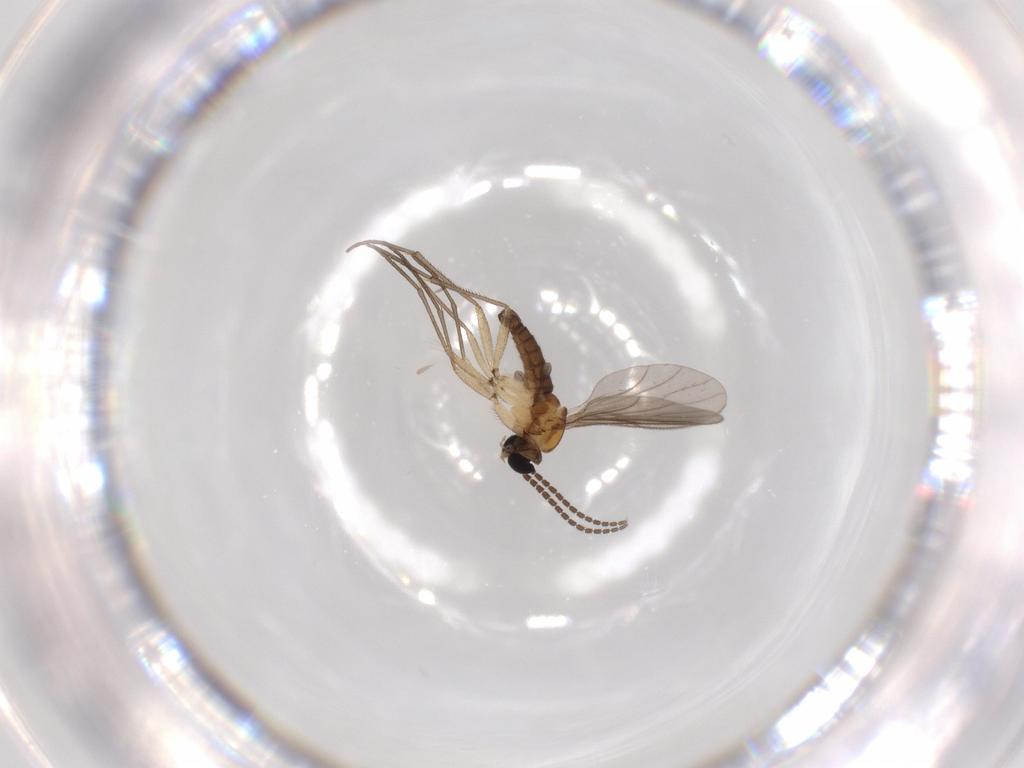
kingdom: Animalia
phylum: Arthropoda
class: Insecta
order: Diptera
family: Sciaridae
